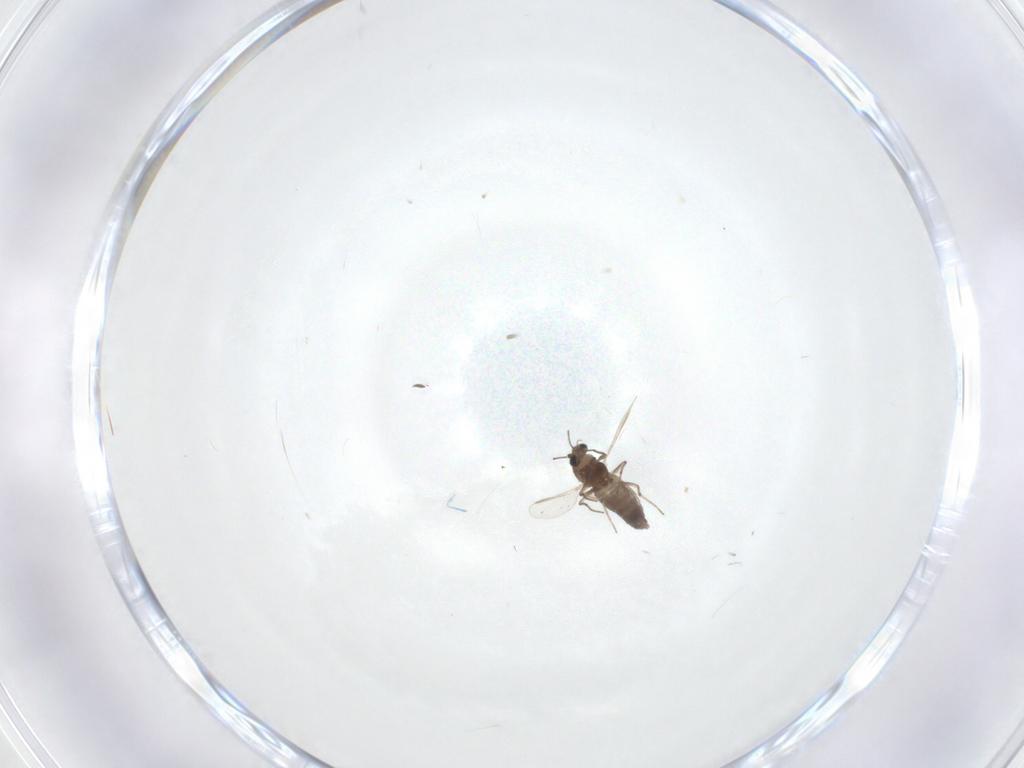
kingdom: Animalia
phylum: Arthropoda
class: Insecta
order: Diptera
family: Chironomidae
